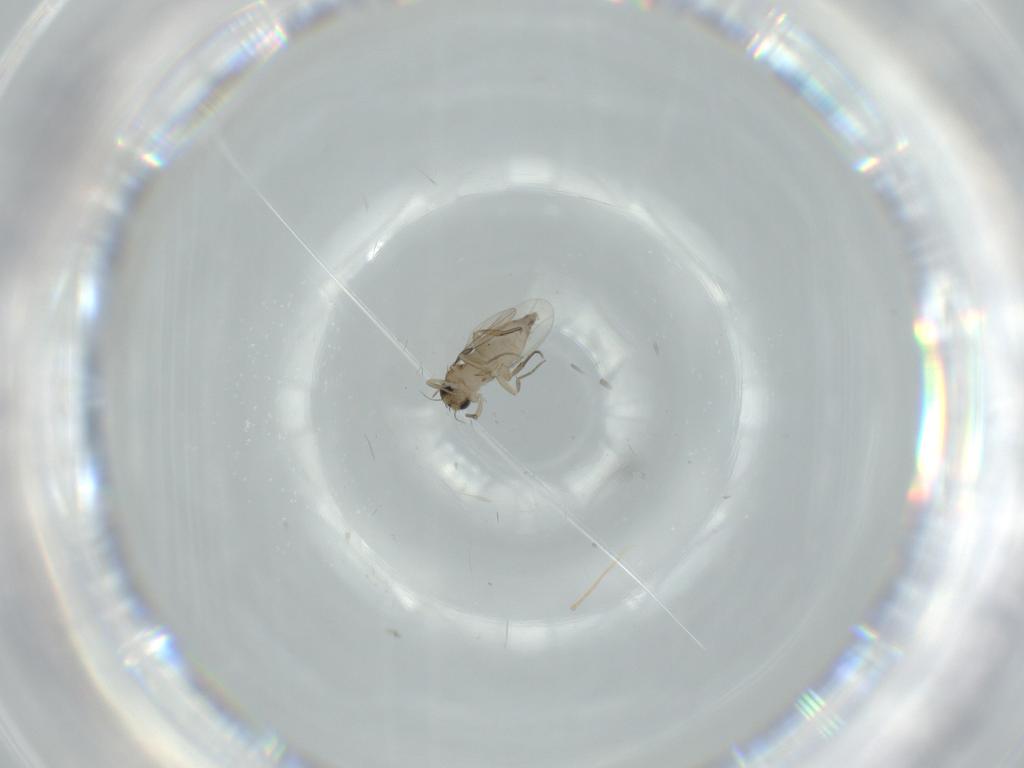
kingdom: Animalia
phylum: Arthropoda
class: Insecta
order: Diptera
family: Phoridae
